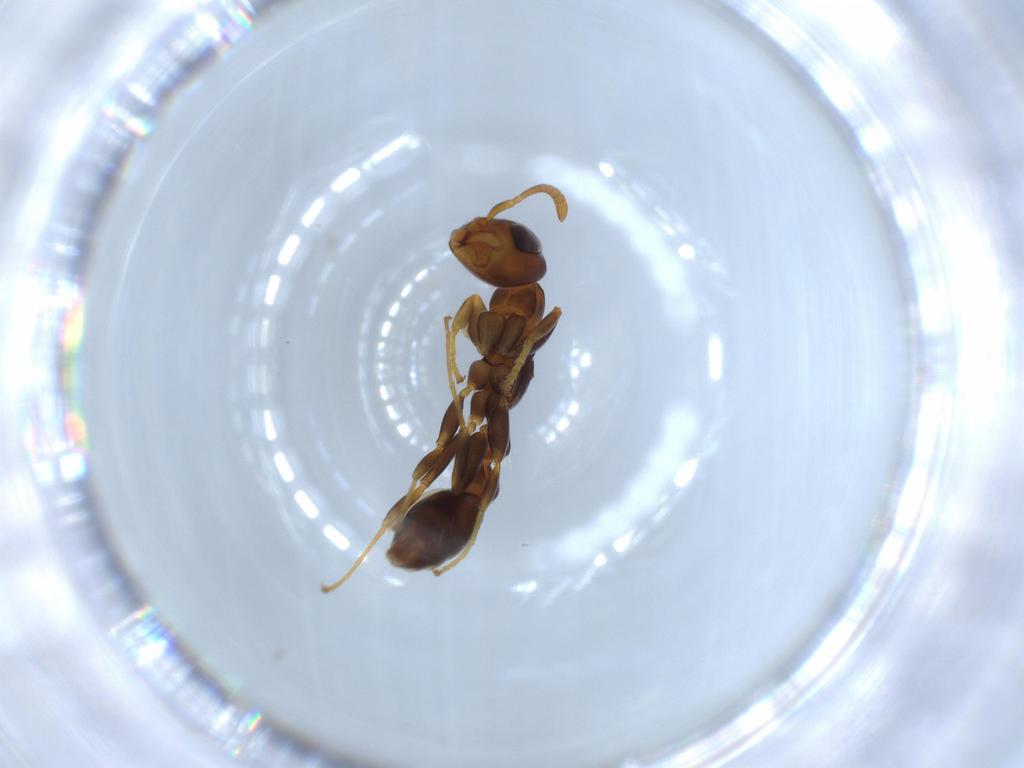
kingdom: Animalia
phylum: Arthropoda
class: Insecta
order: Hymenoptera
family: Formicidae
